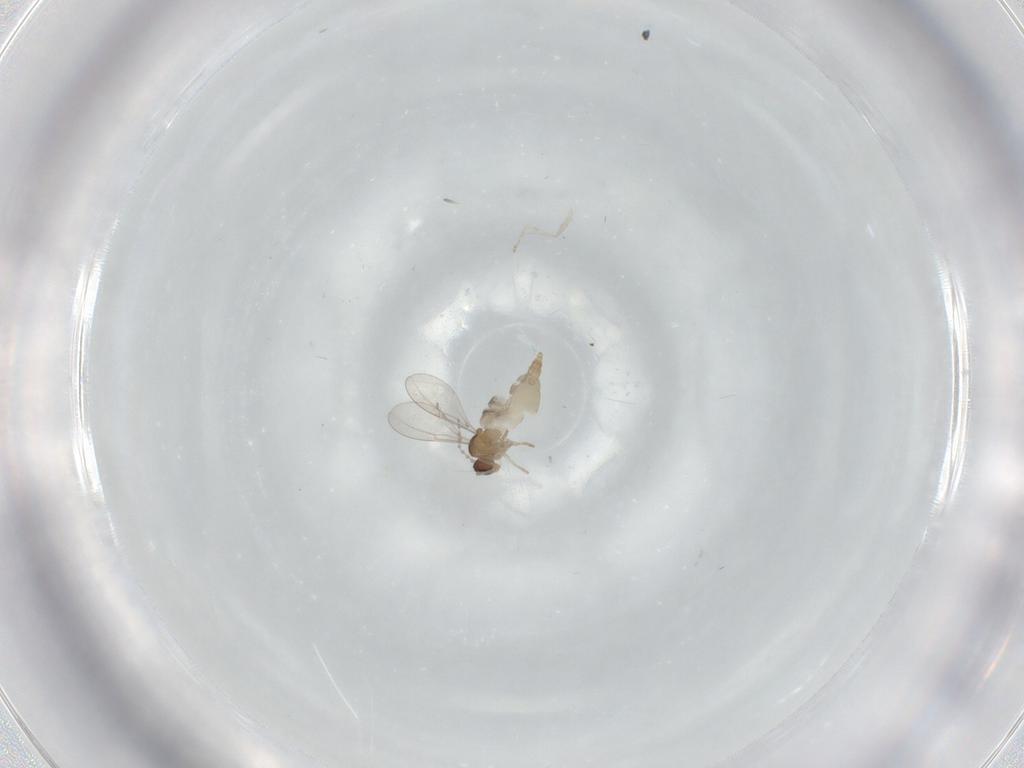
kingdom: Animalia
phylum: Arthropoda
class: Insecta
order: Diptera
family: Cecidomyiidae
